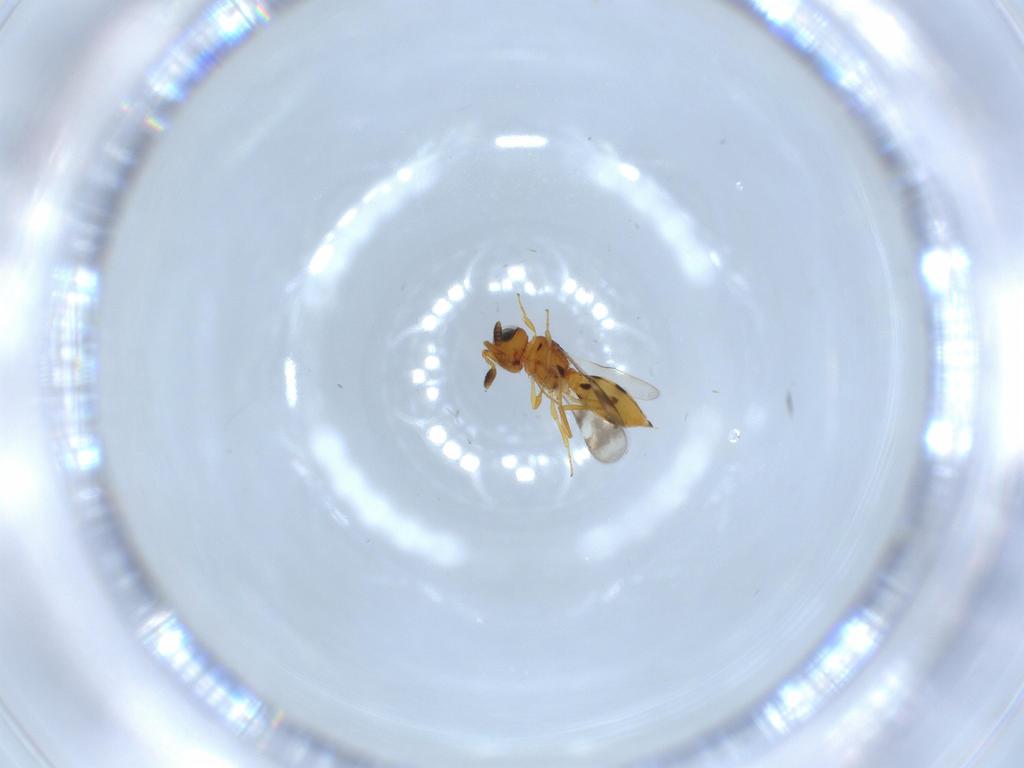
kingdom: Animalia
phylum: Arthropoda
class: Insecta
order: Hymenoptera
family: Scelionidae
